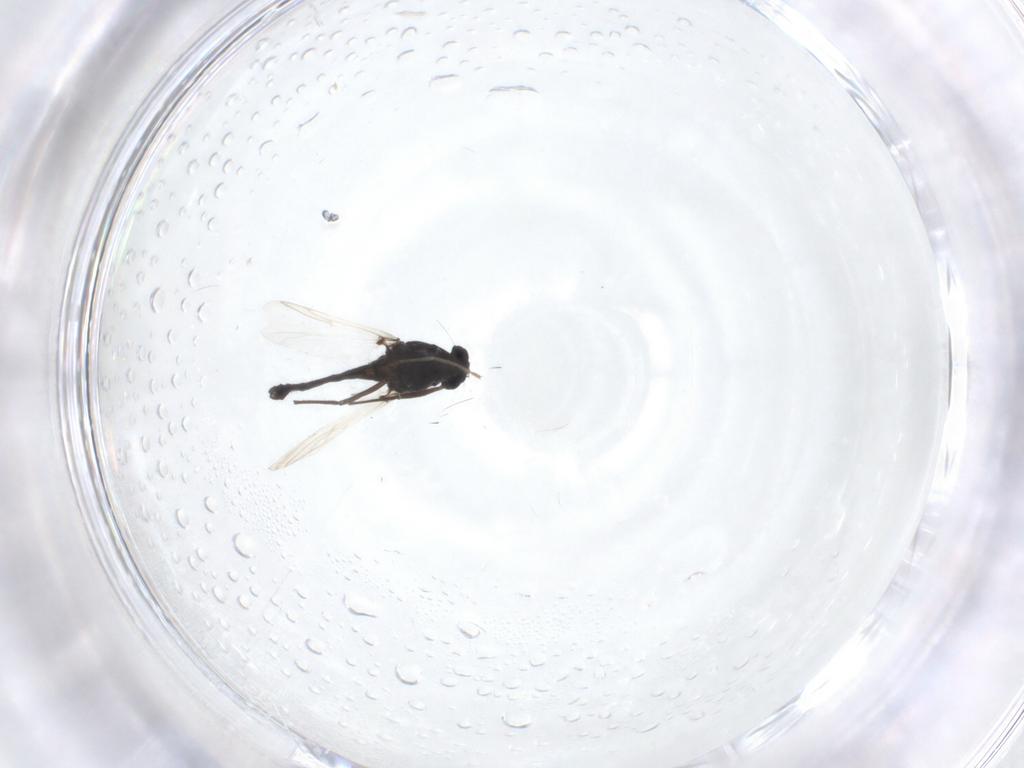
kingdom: Animalia
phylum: Arthropoda
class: Insecta
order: Diptera
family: Chironomidae
